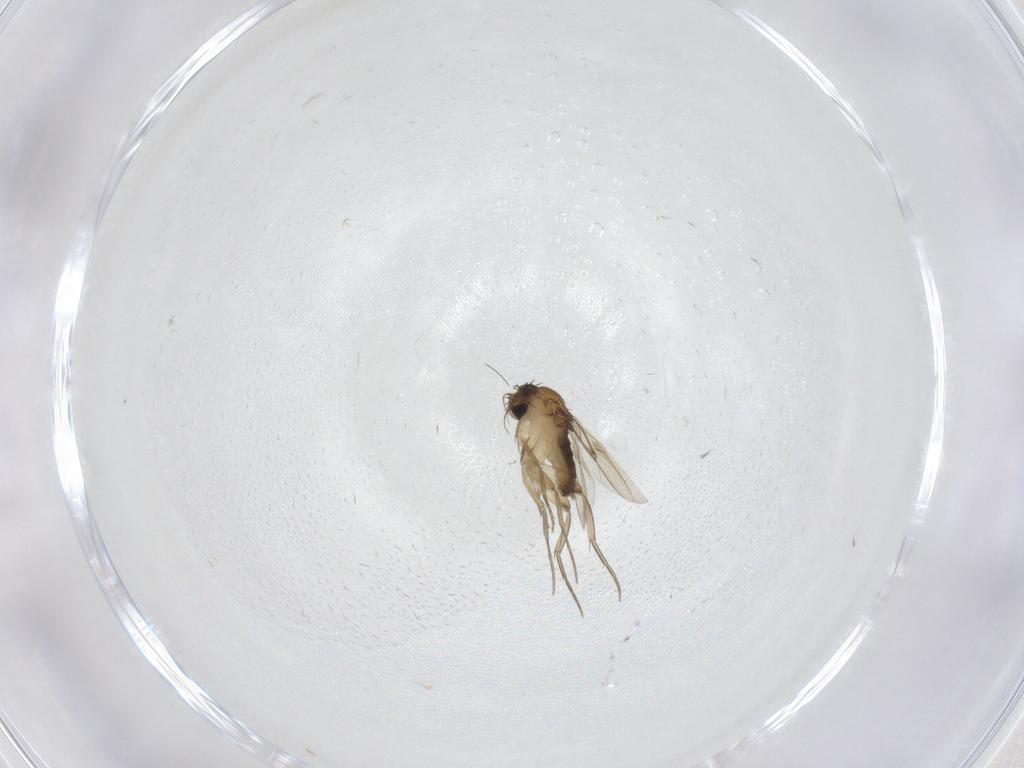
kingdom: Animalia
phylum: Arthropoda
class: Insecta
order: Diptera
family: Phoridae
